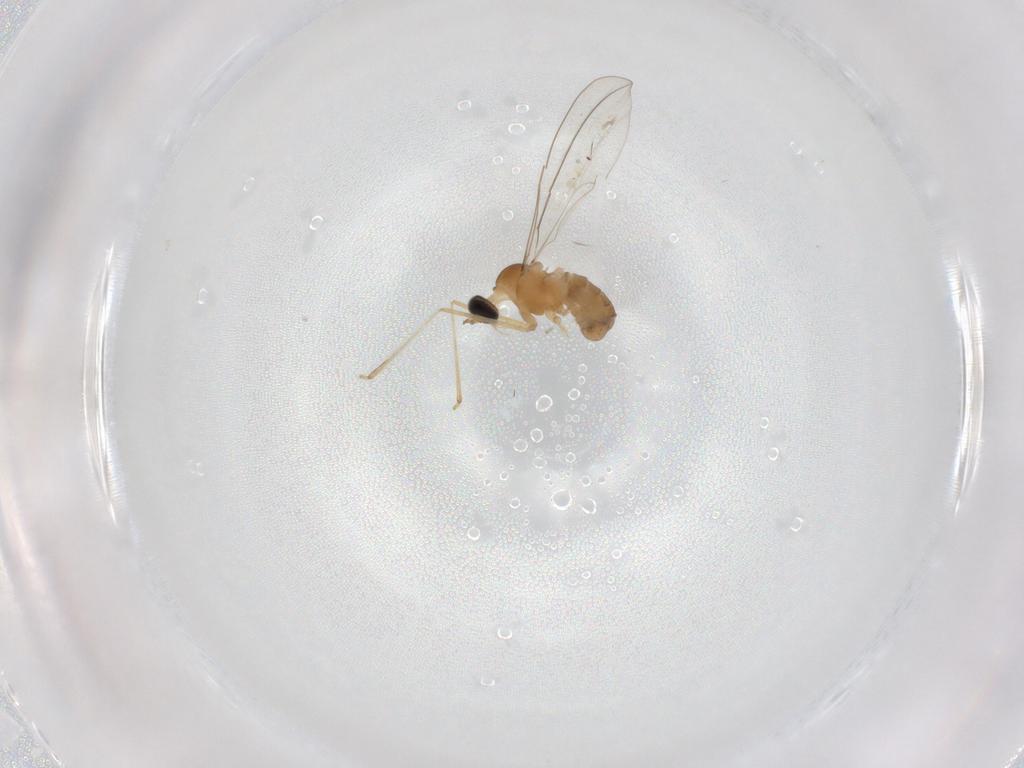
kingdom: Animalia
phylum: Arthropoda
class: Insecta
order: Diptera
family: Cecidomyiidae
